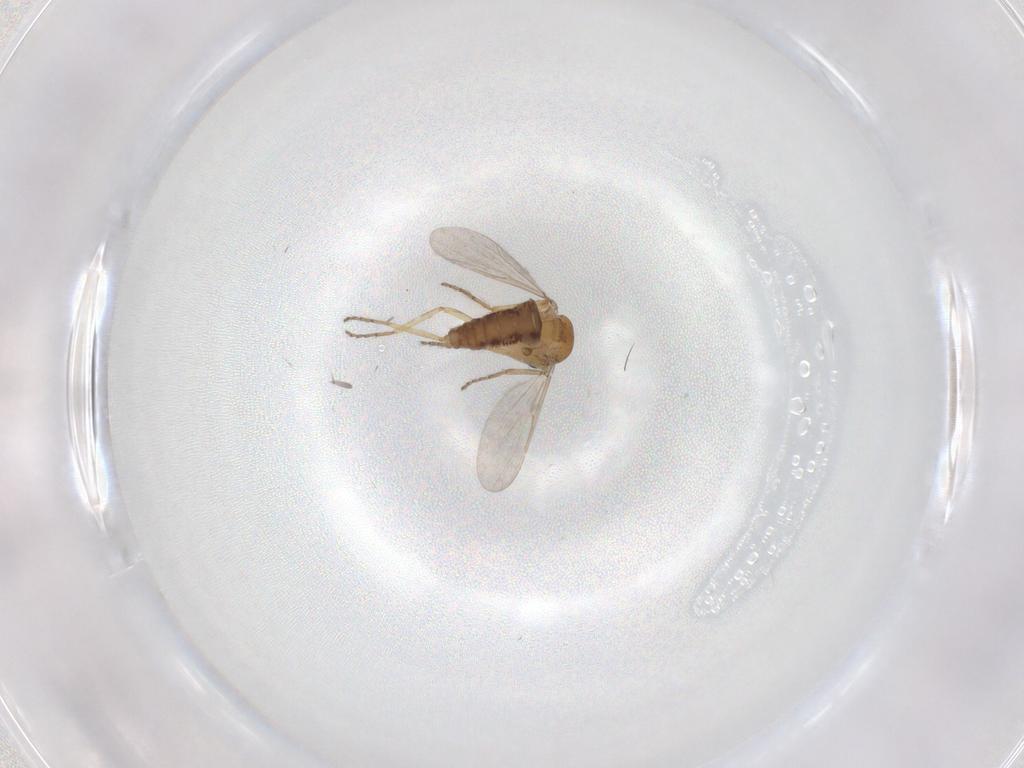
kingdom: Animalia
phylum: Arthropoda
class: Insecta
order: Diptera
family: Ceratopogonidae
